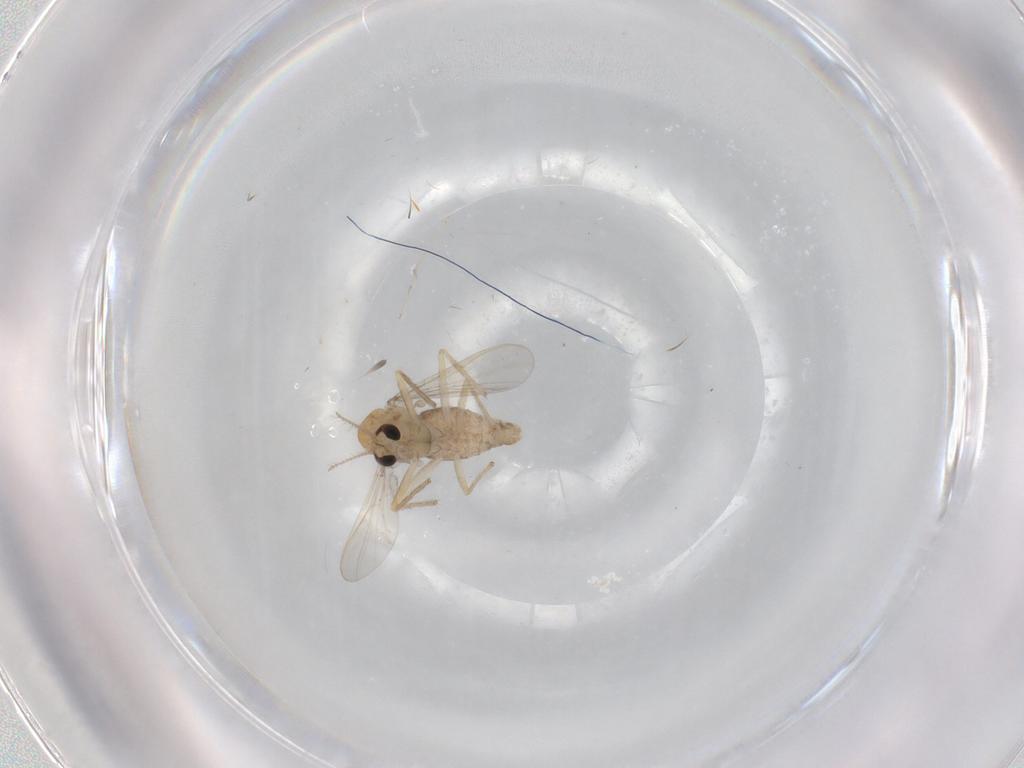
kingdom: Animalia
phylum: Arthropoda
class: Insecta
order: Diptera
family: Chironomidae
